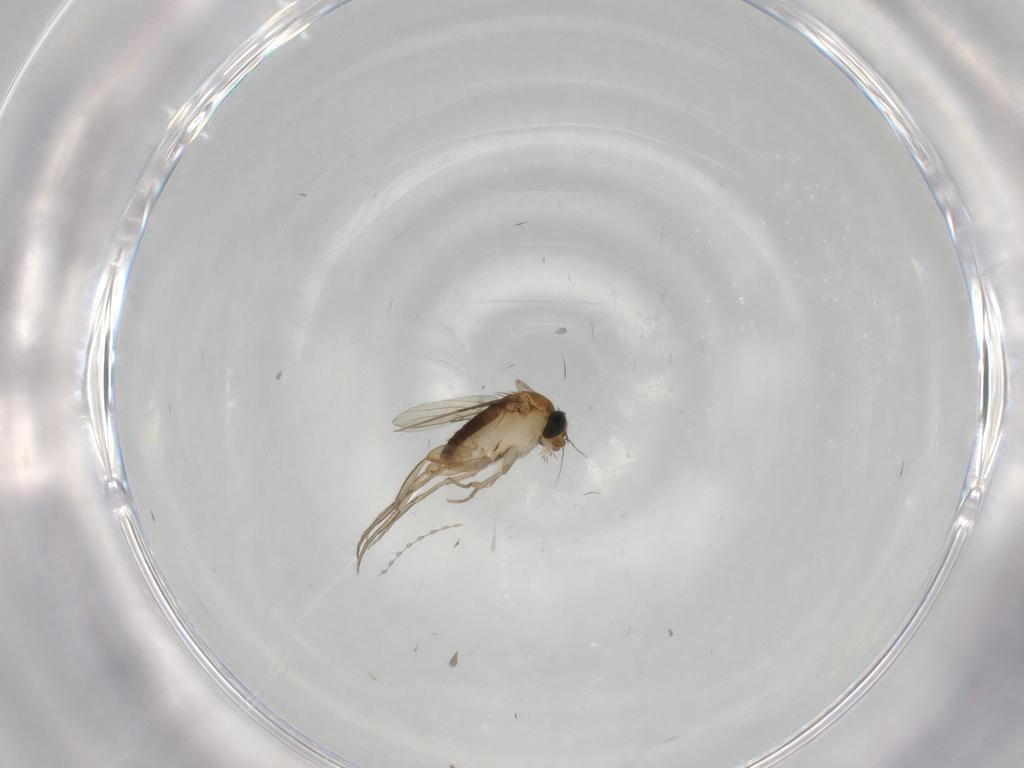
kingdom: Animalia
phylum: Arthropoda
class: Insecta
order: Diptera
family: Phoridae
